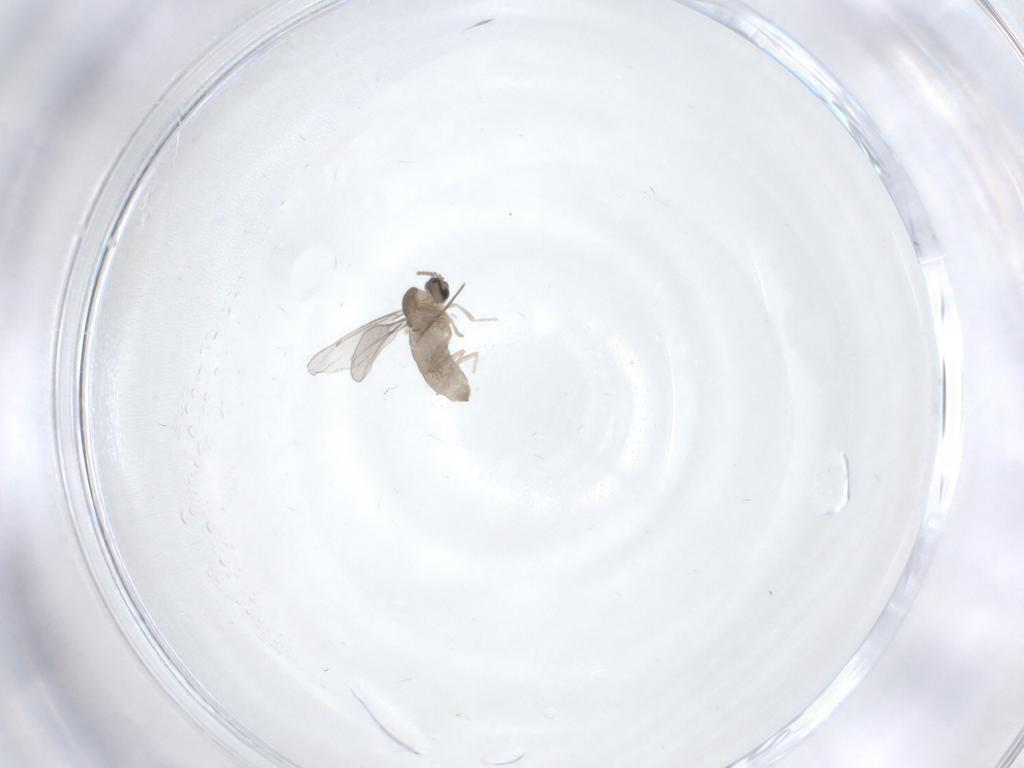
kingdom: Animalia
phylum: Arthropoda
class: Insecta
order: Diptera
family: Cecidomyiidae
